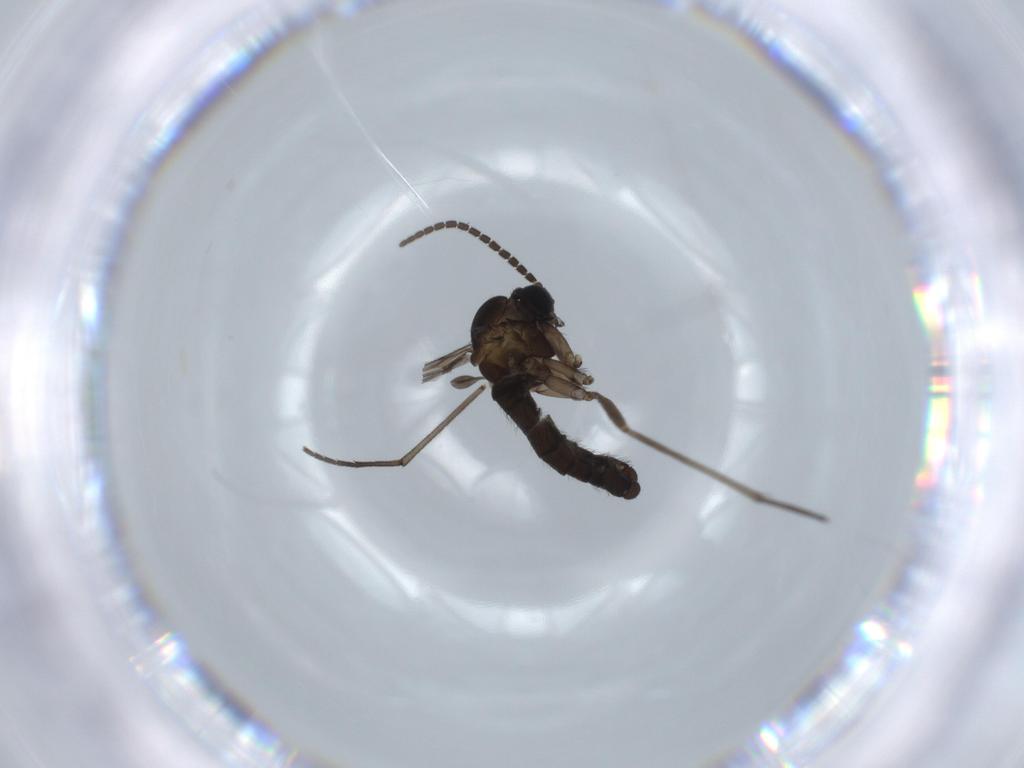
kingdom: Animalia
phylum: Arthropoda
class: Insecta
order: Diptera
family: Sciaridae
